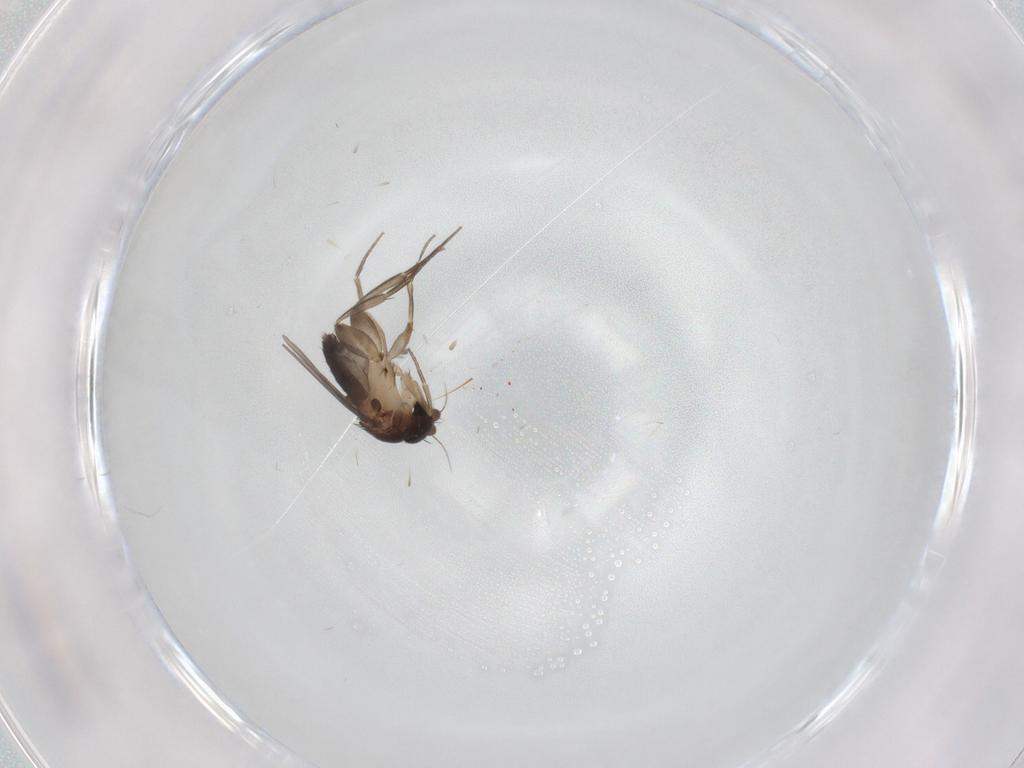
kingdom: Animalia
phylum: Arthropoda
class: Insecta
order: Diptera
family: Phoridae
